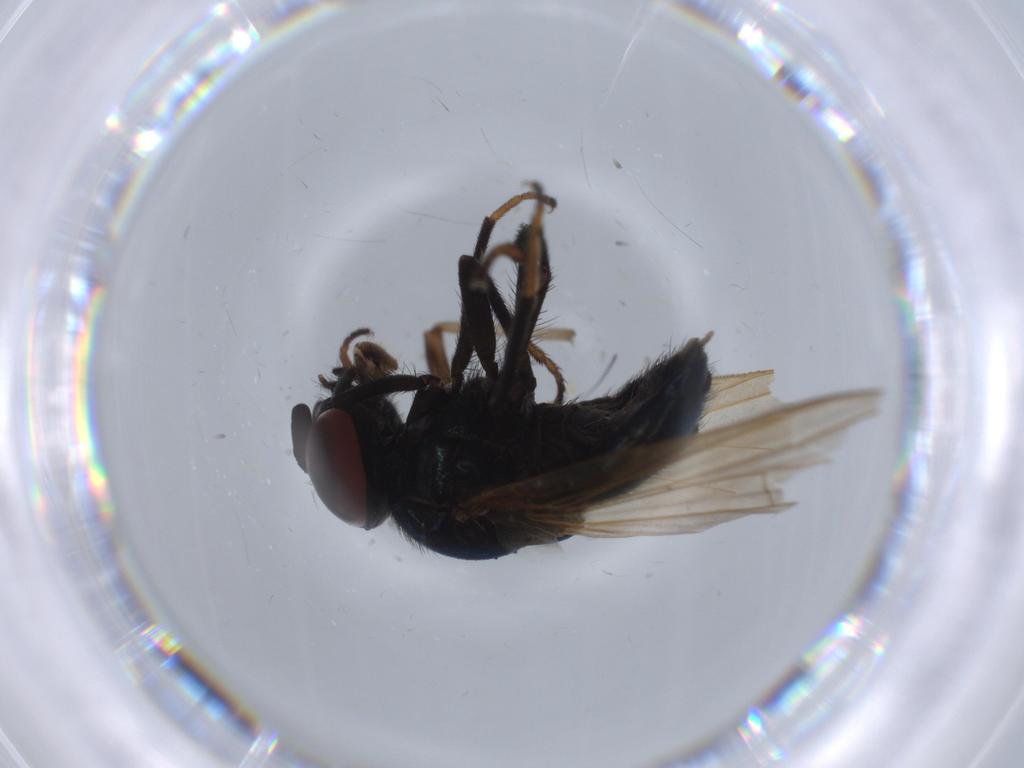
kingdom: Animalia
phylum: Arthropoda
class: Insecta
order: Diptera
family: Lonchaeidae
